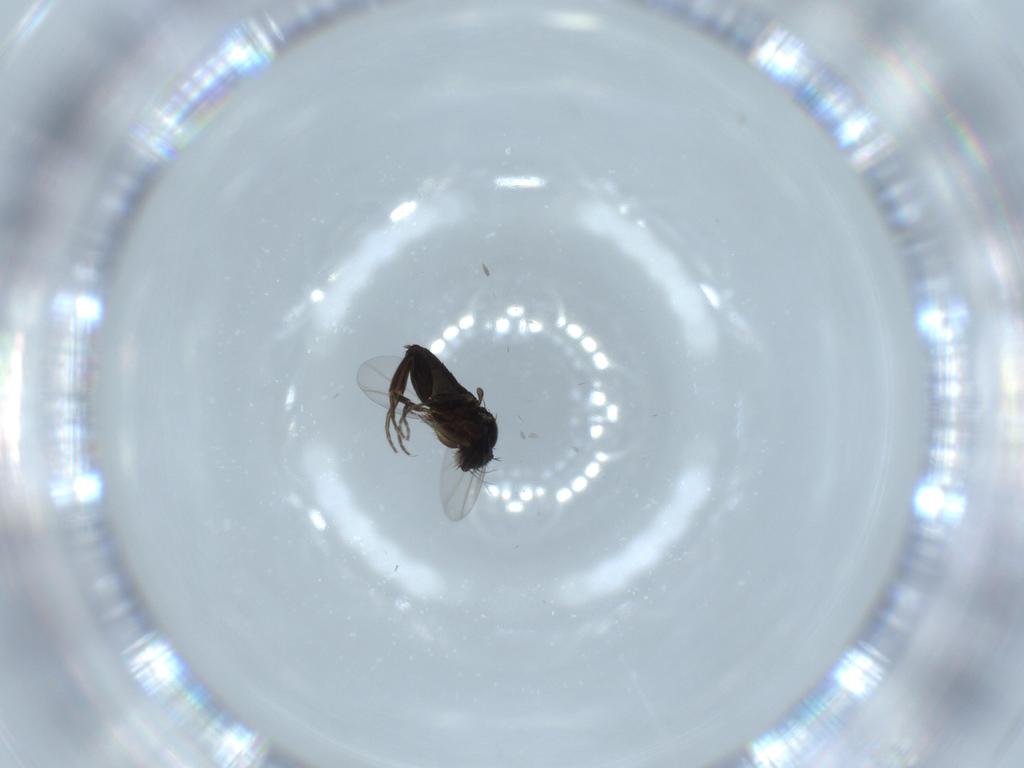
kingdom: Animalia
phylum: Arthropoda
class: Insecta
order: Diptera
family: Phoridae
